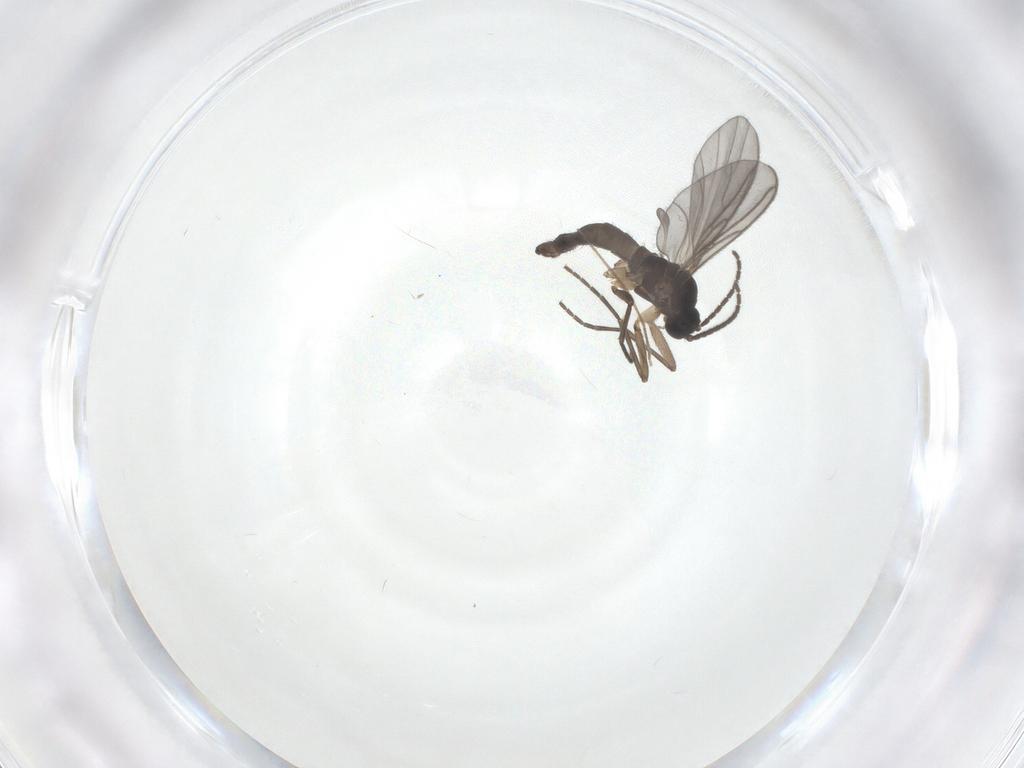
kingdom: Animalia
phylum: Arthropoda
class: Insecta
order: Diptera
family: Sciaridae
